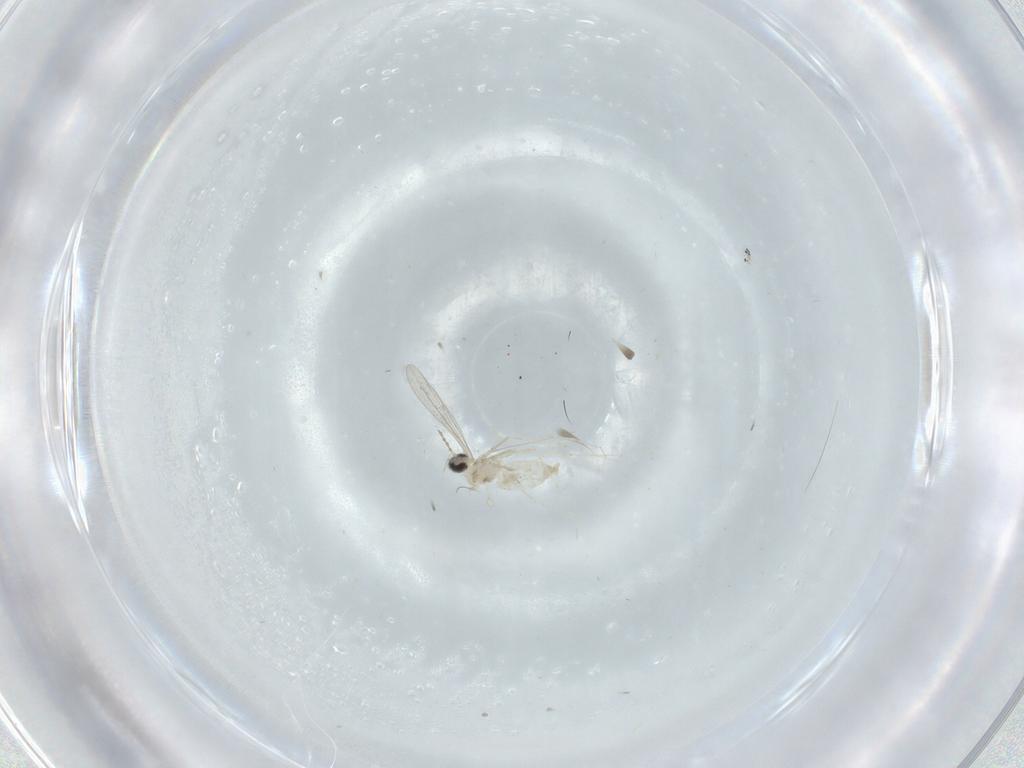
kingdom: Animalia
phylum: Arthropoda
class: Insecta
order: Diptera
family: Cecidomyiidae
